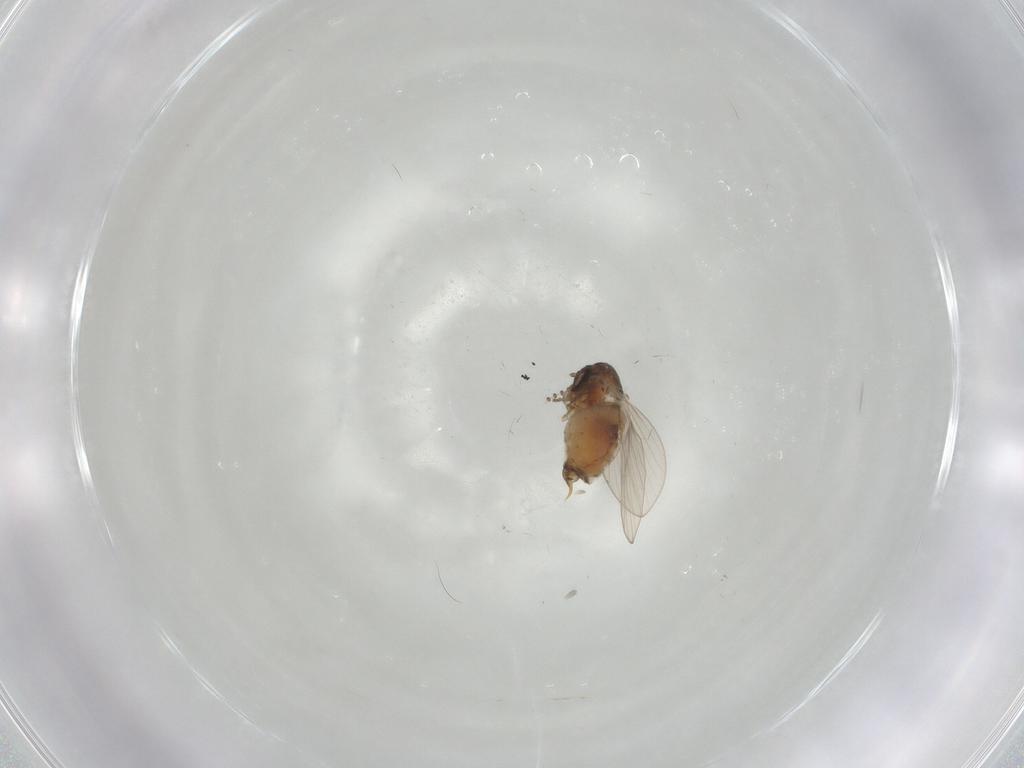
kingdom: Animalia
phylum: Arthropoda
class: Insecta
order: Diptera
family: Psychodidae
